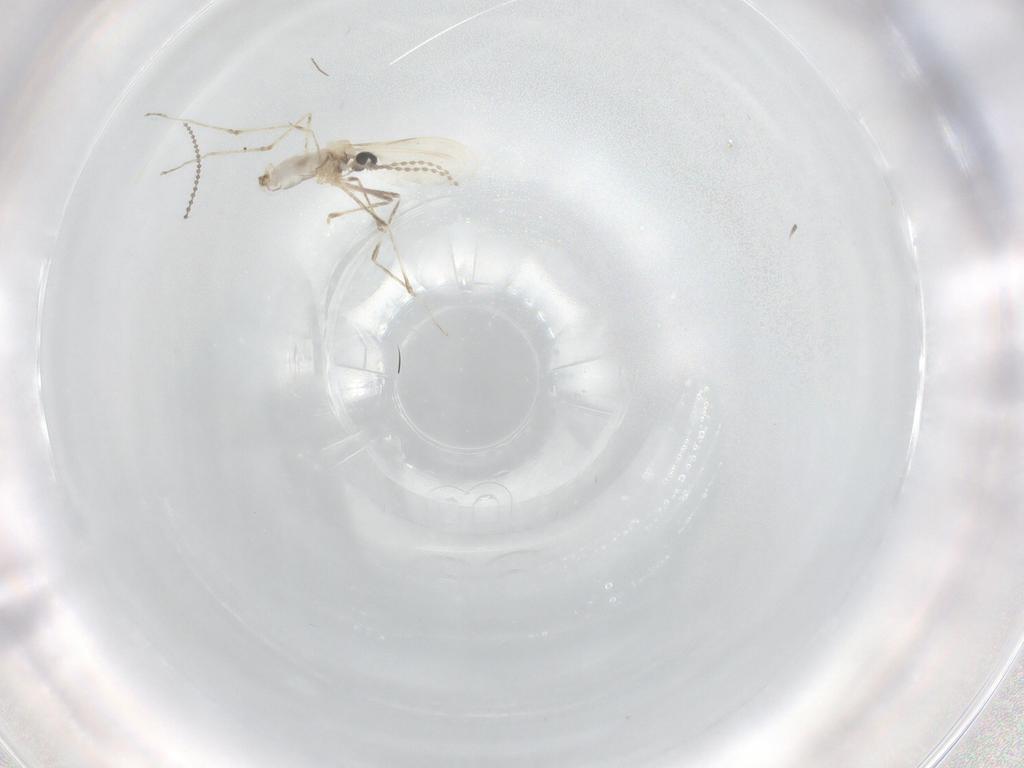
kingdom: Animalia
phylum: Arthropoda
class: Insecta
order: Diptera
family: Cecidomyiidae
